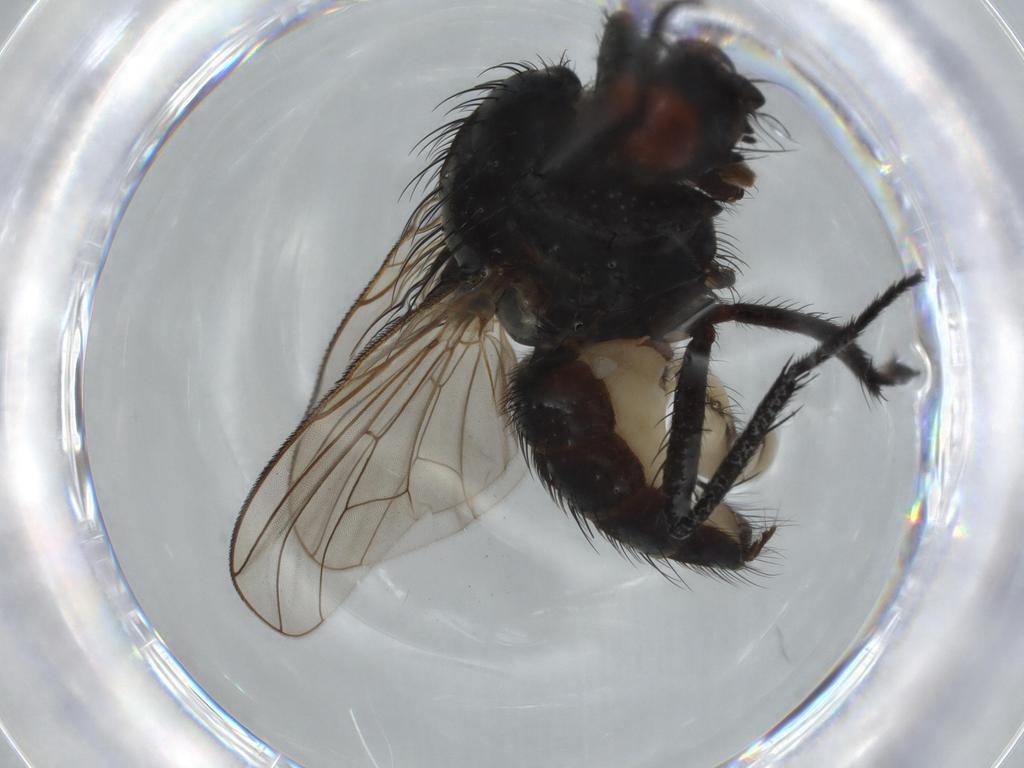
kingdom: Animalia
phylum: Arthropoda
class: Insecta
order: Diptera
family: Anthomyiidae
